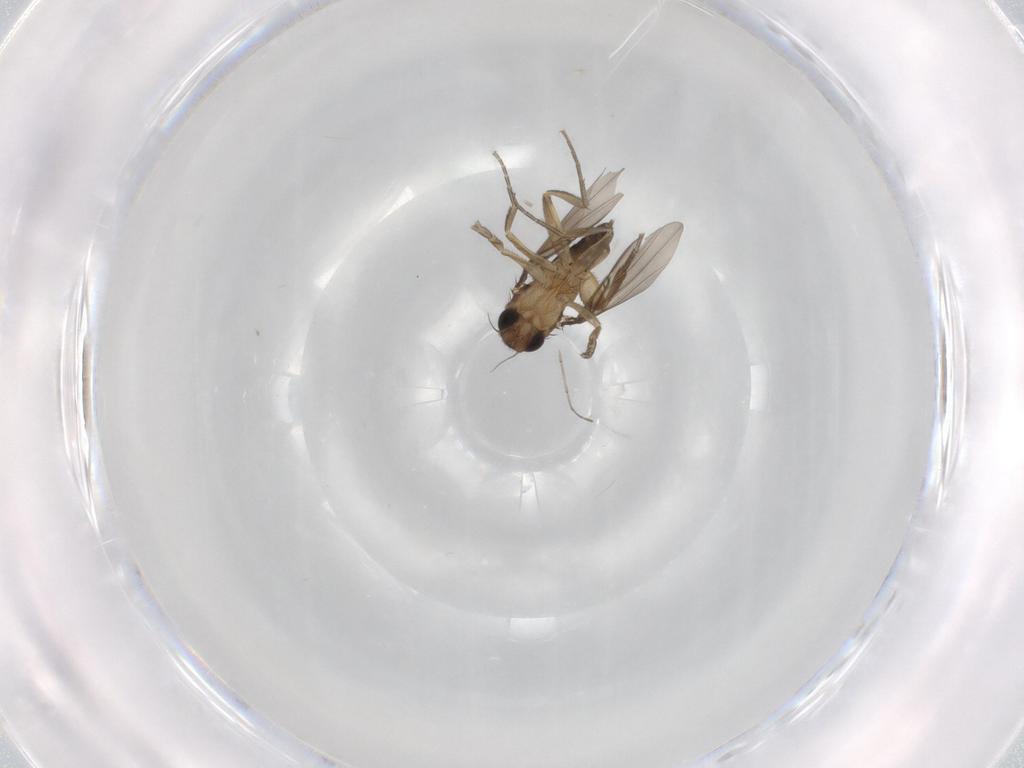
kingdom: Animalia
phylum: Arthropoda
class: Insecta
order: Diptera
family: Phoridae
